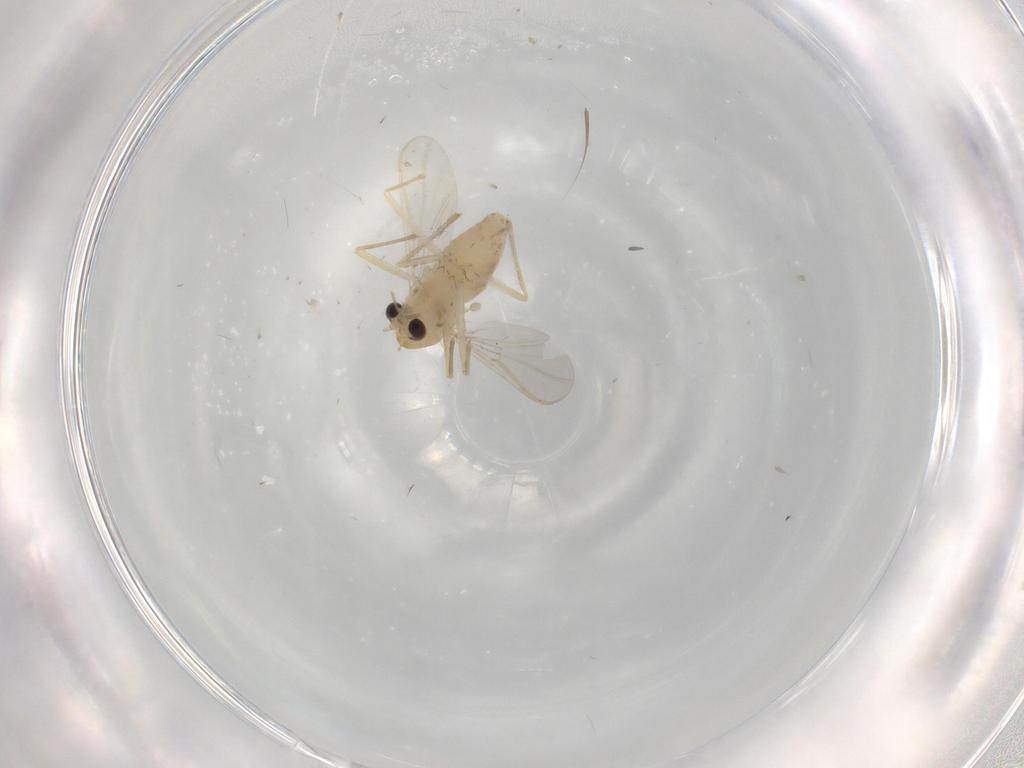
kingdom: Animalia
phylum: Arthropoda
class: Insecta
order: Diptera
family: Chironomidae
